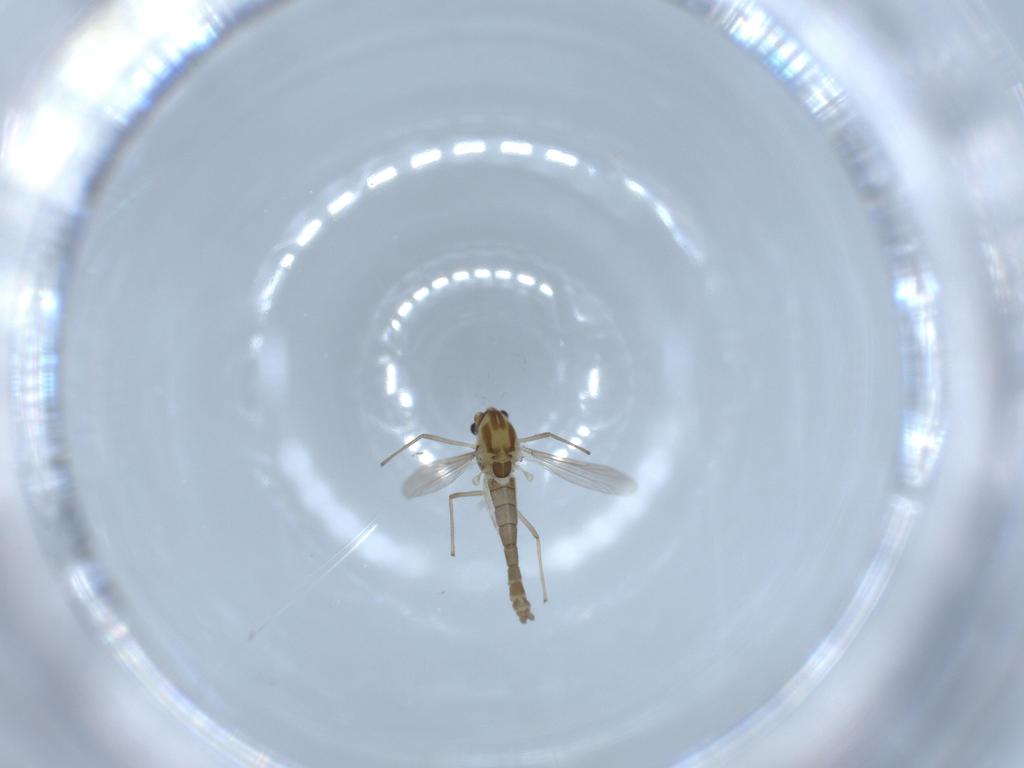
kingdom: Animalia
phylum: Arthropoda
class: Insecta
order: Diptera
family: Chironomidae
